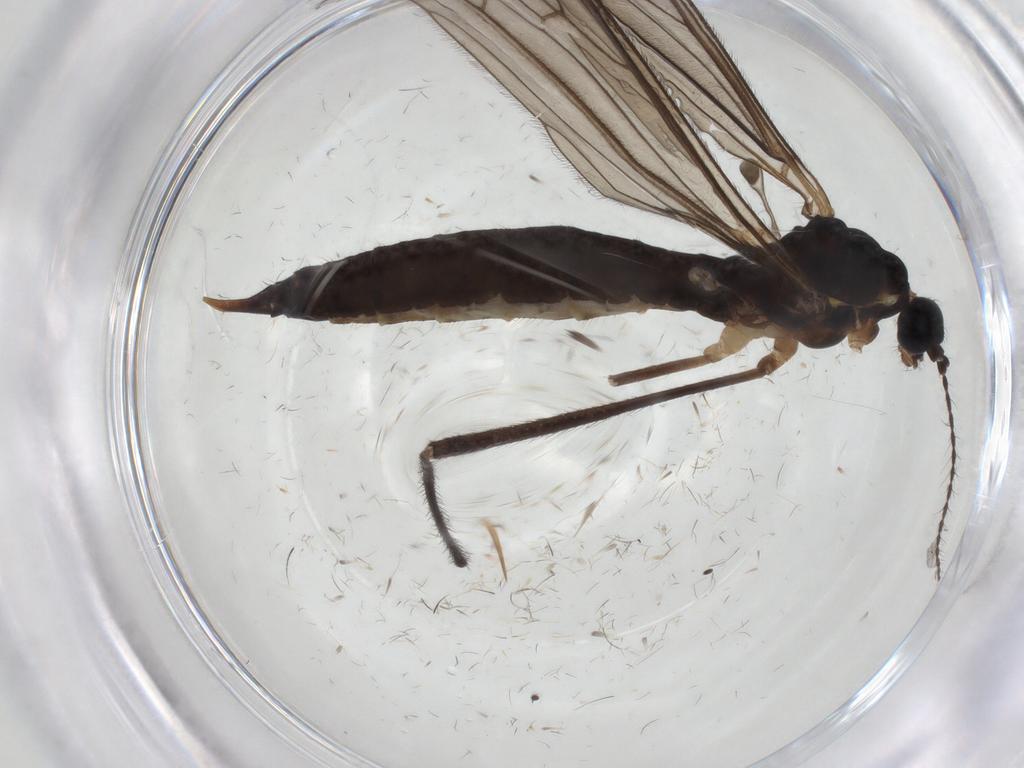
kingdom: Animalia
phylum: Arthropoda
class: Insecta
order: Diptera
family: Limoniidae
